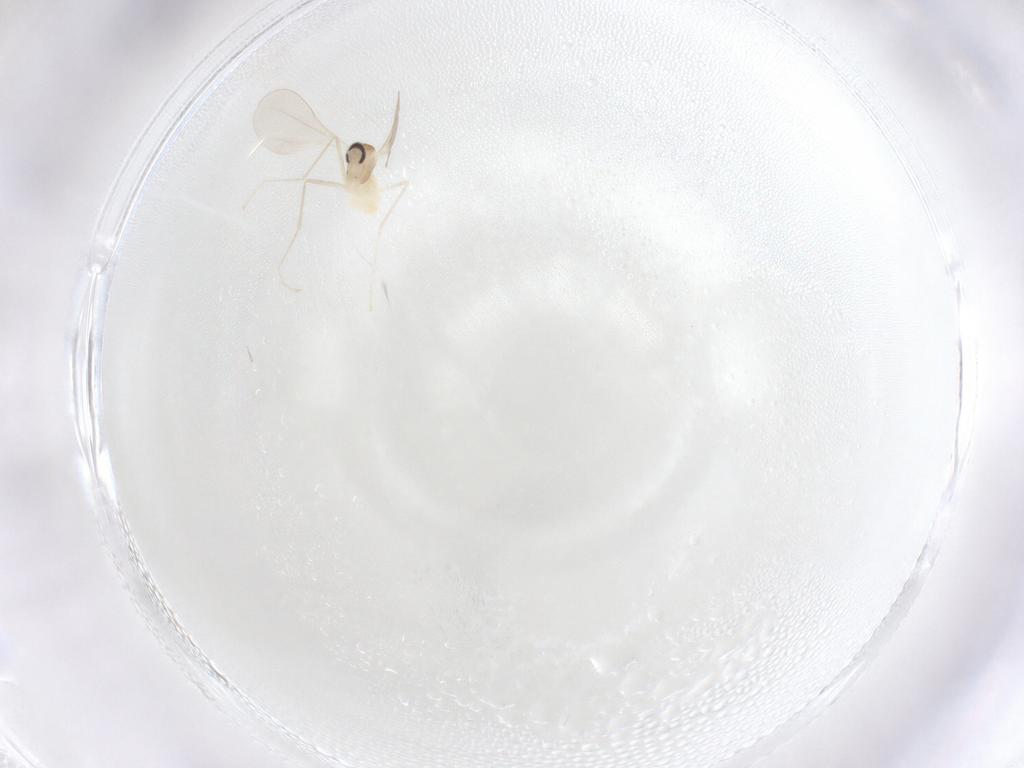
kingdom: Animalia
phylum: Arthropoda
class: Insecta
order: Diptera
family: Cecidomyiidae
